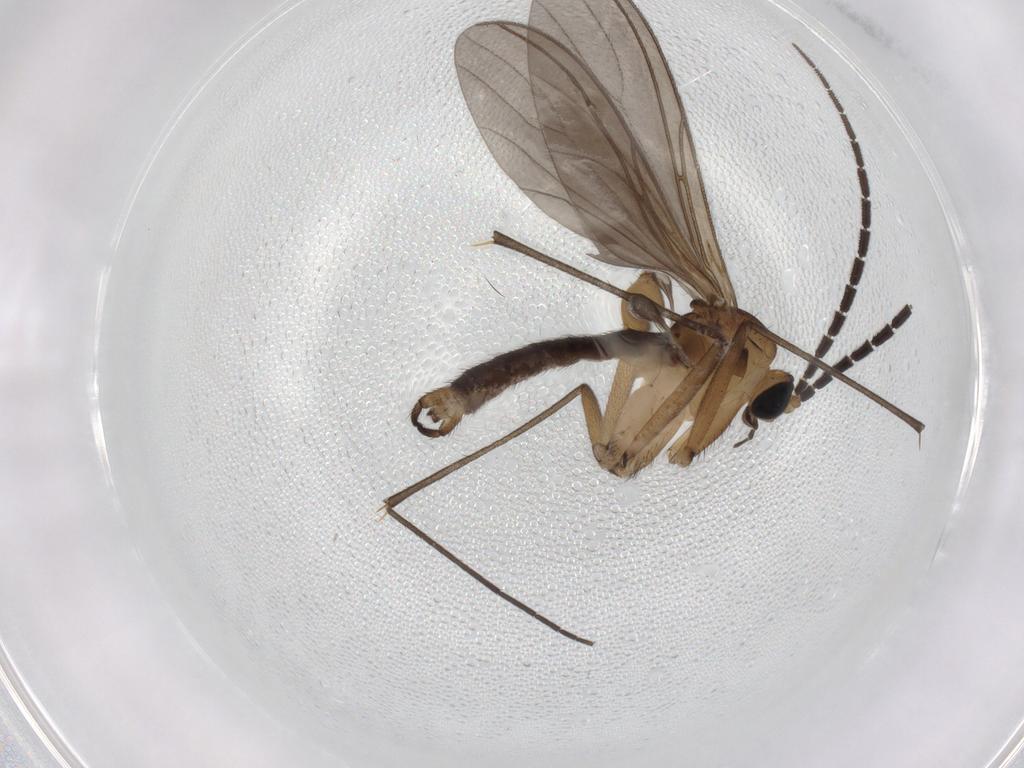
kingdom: Animalia
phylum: Arthropoda
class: Insecta
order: Diptera
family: Sciaridae
